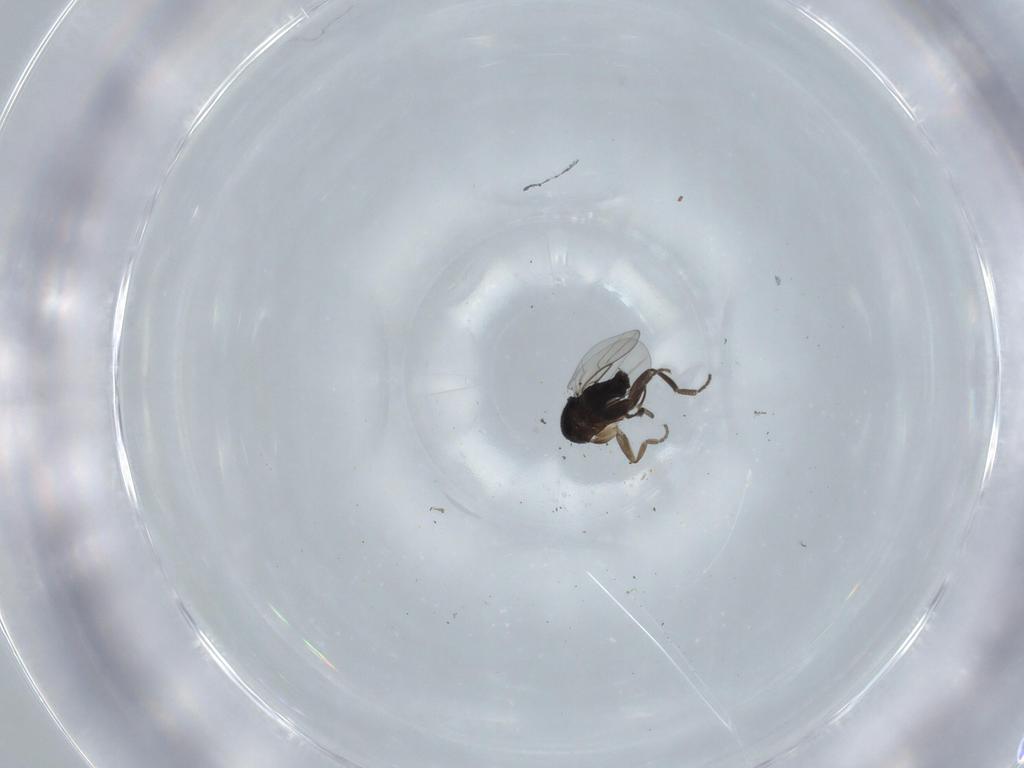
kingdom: Animalia
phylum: Arthropoda
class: Insecta
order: Diptera
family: Phoridae
